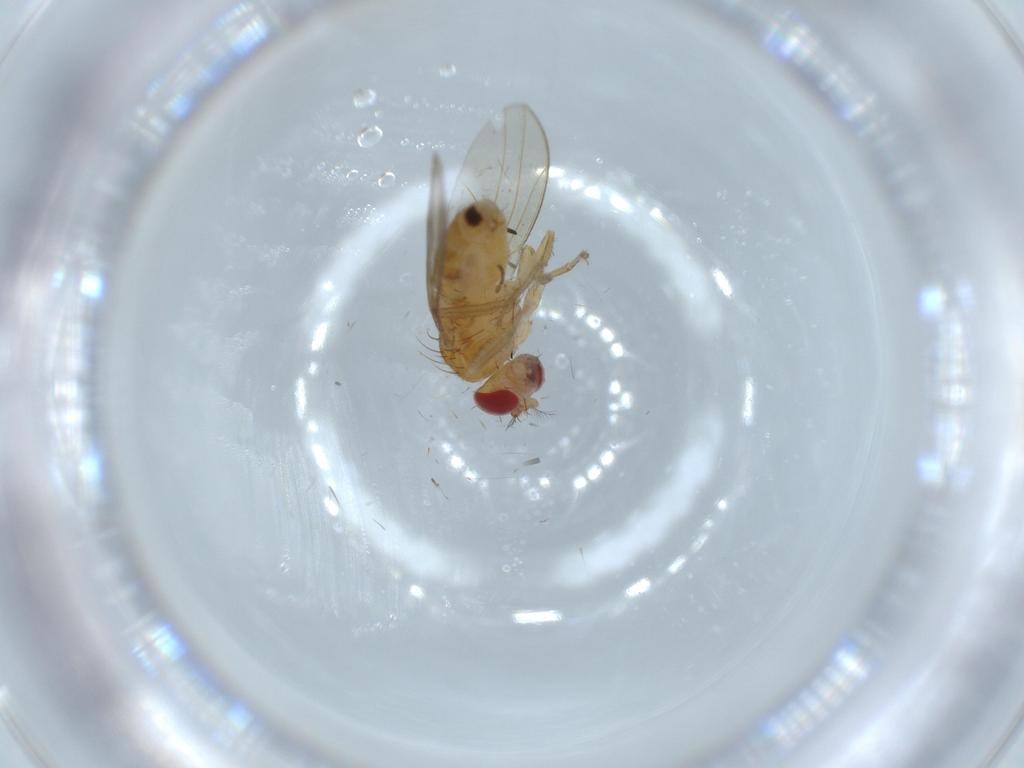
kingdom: Animalia
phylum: Arthropoda
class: Insecta
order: Diptera
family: Drosophilidae
